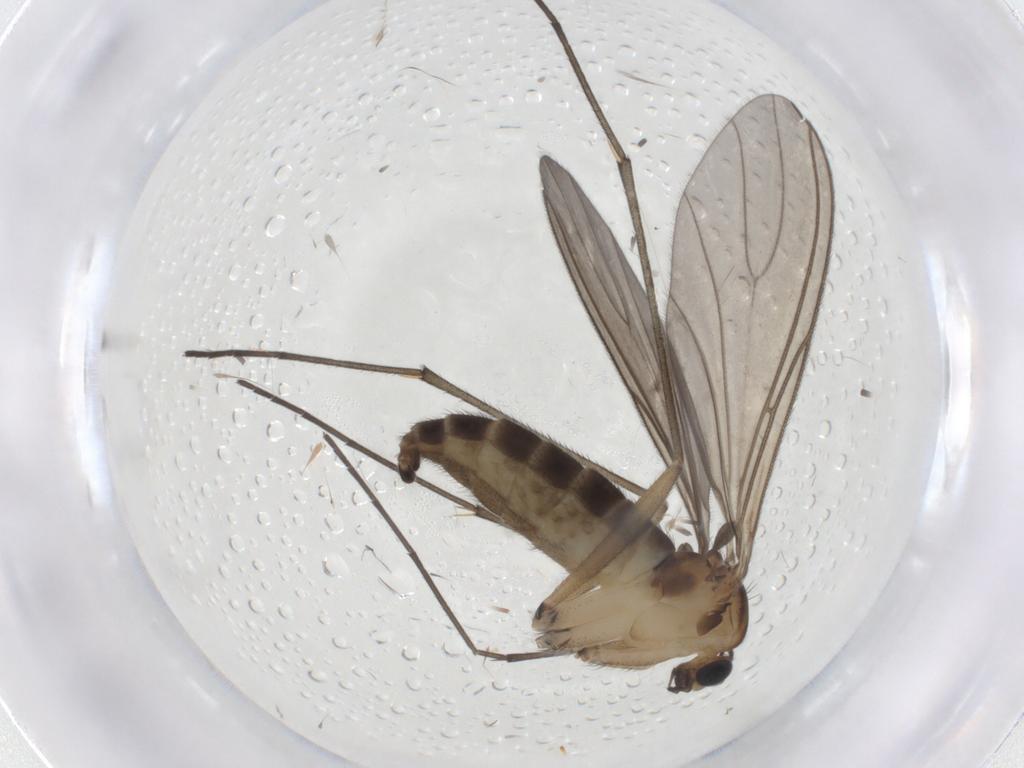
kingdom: Animalia
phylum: Arthropoda
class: Insecta
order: Diptera
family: Sciaridae
